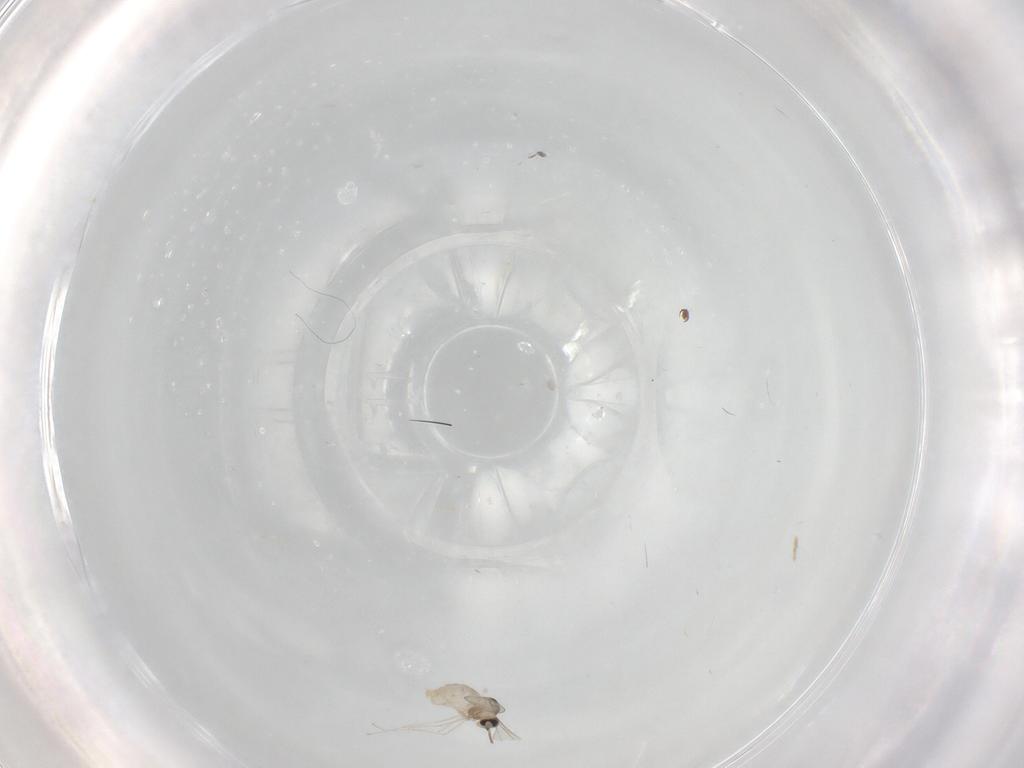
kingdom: Animalia
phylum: Arthropoda
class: Insecta
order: Diptera
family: Cecidomyiidae
